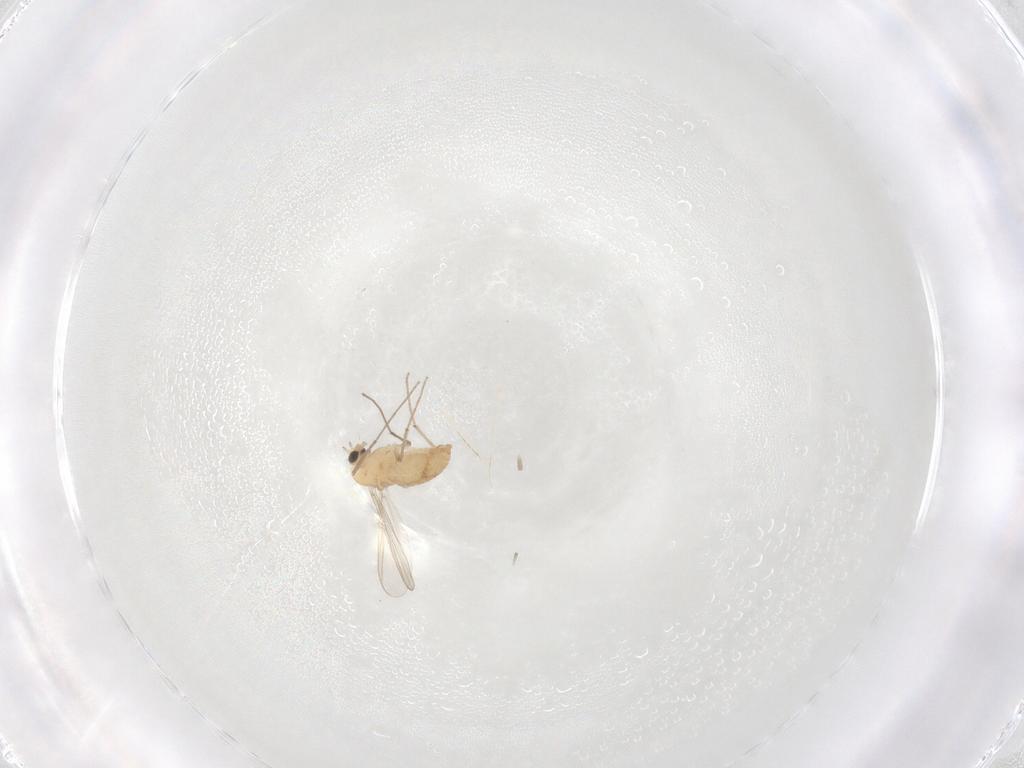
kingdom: Animalia
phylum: Arthropoda
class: Insecta
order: Diptera
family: Chironomidae
